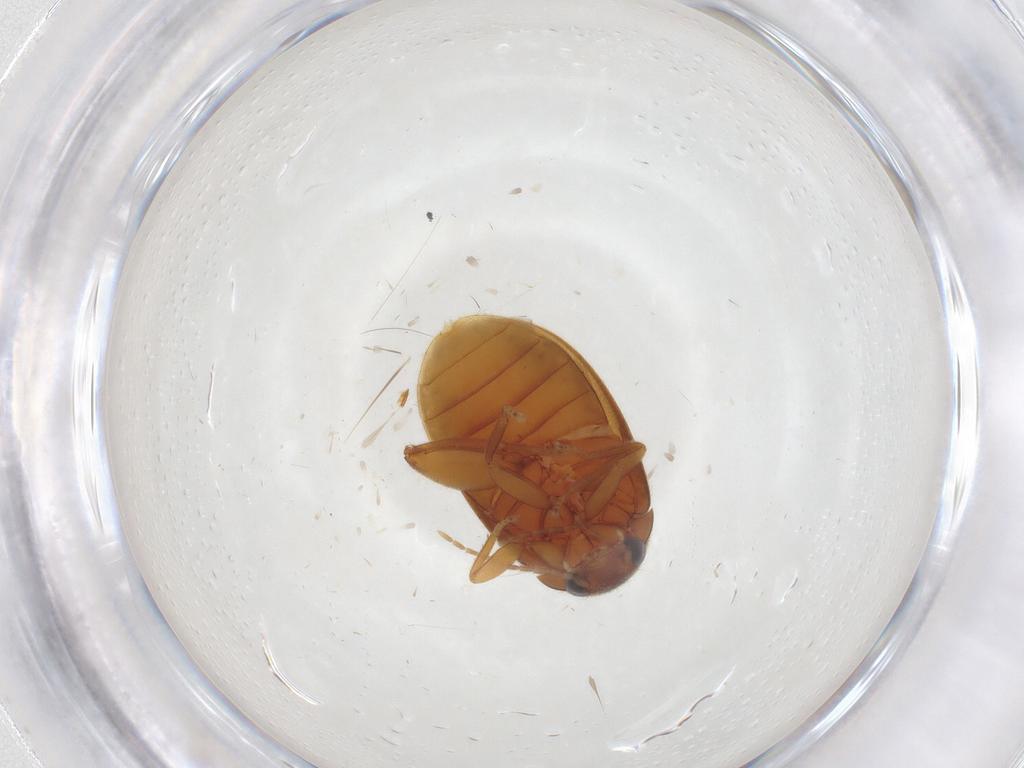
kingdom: Animalia
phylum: Arthropoda
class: Insecta
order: Coleoptera
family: Scirtidae
